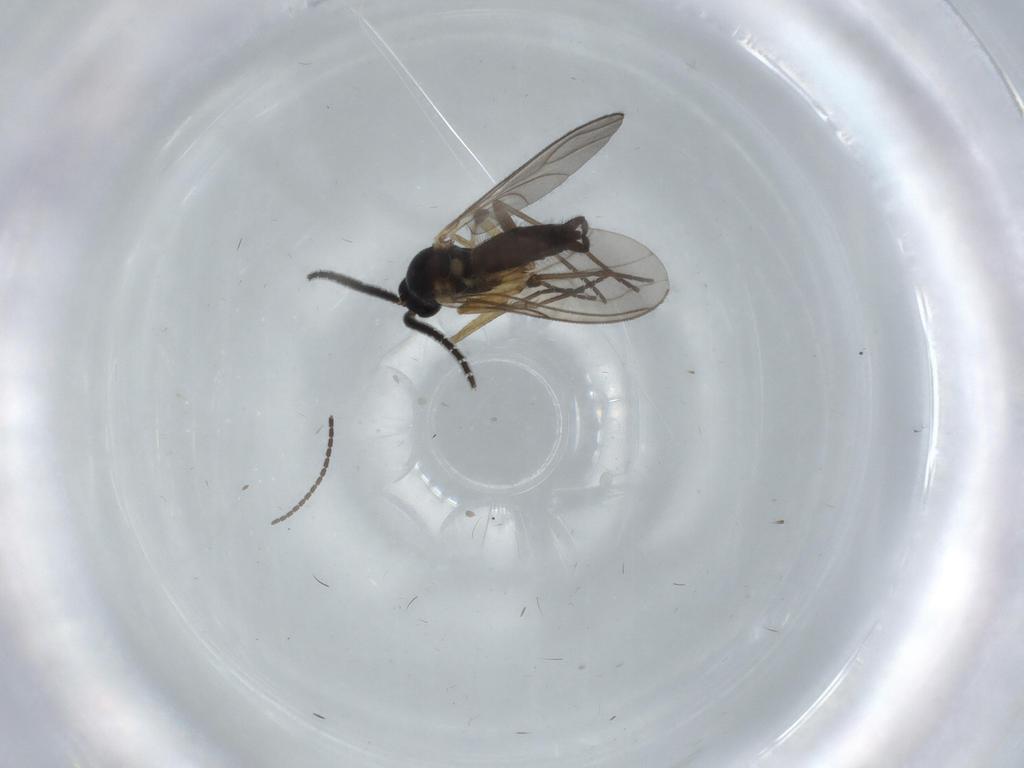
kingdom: Animalia
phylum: Arthropoda
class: Insecta
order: Diptera
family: Sciaridae
